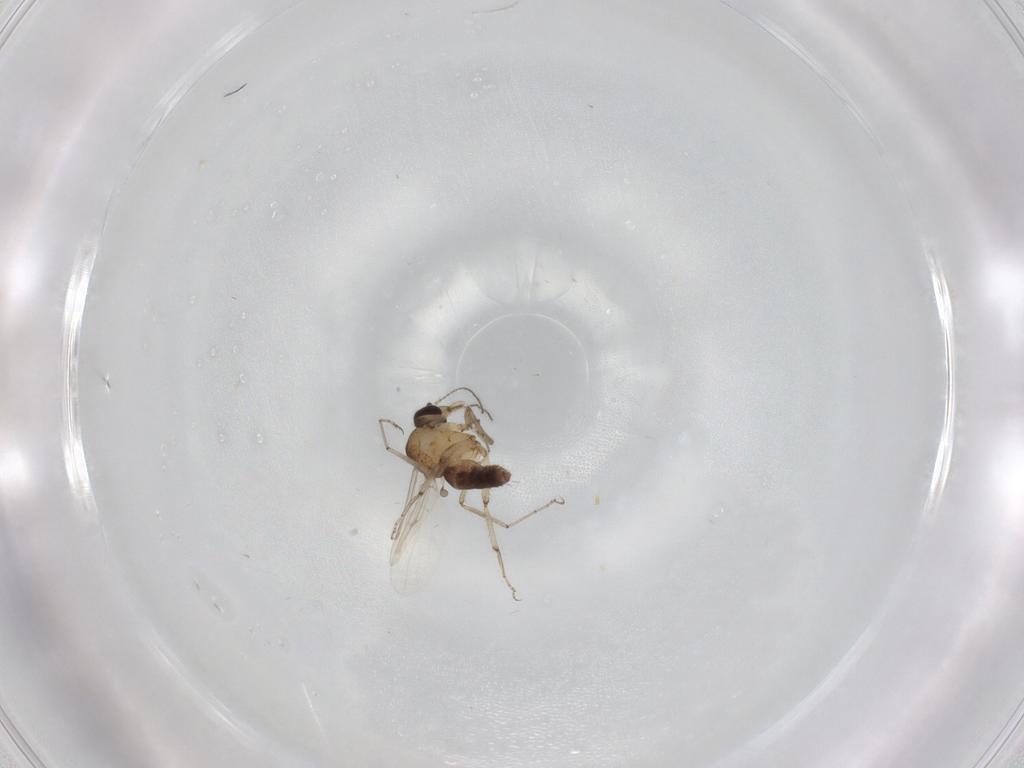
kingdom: Animalia
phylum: Arthropoda
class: Insecta
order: Diptera
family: Ceratopogonidae
